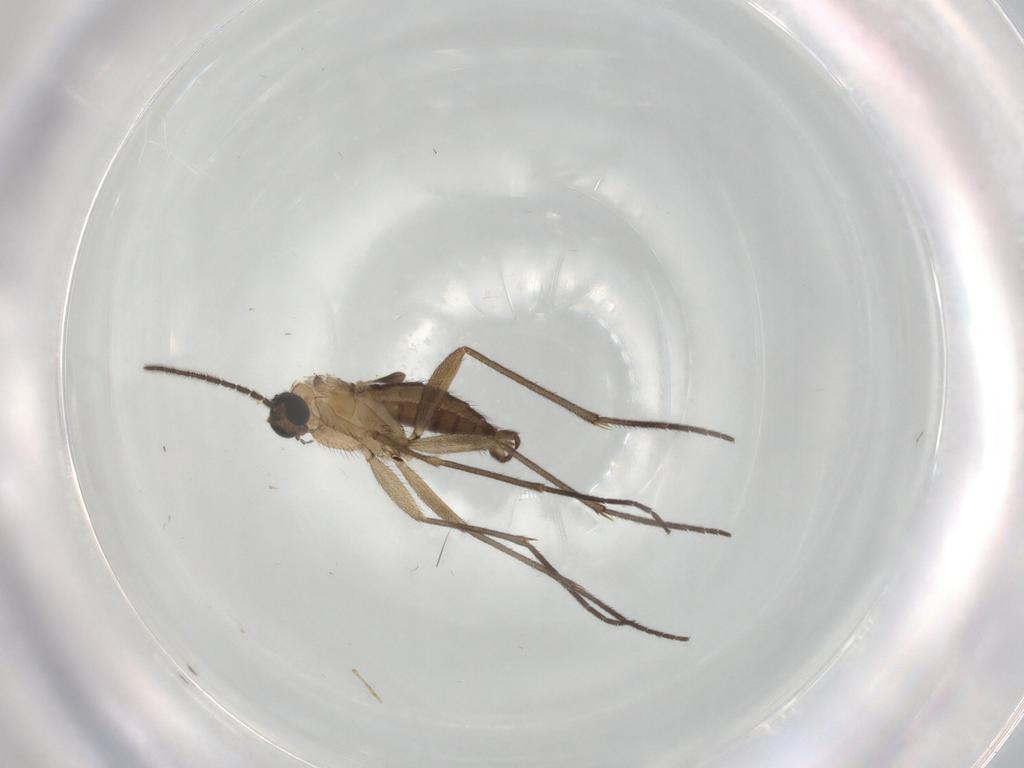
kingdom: Animalia
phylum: Arthropoda
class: Insecta
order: Diptera
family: Sciaridae
